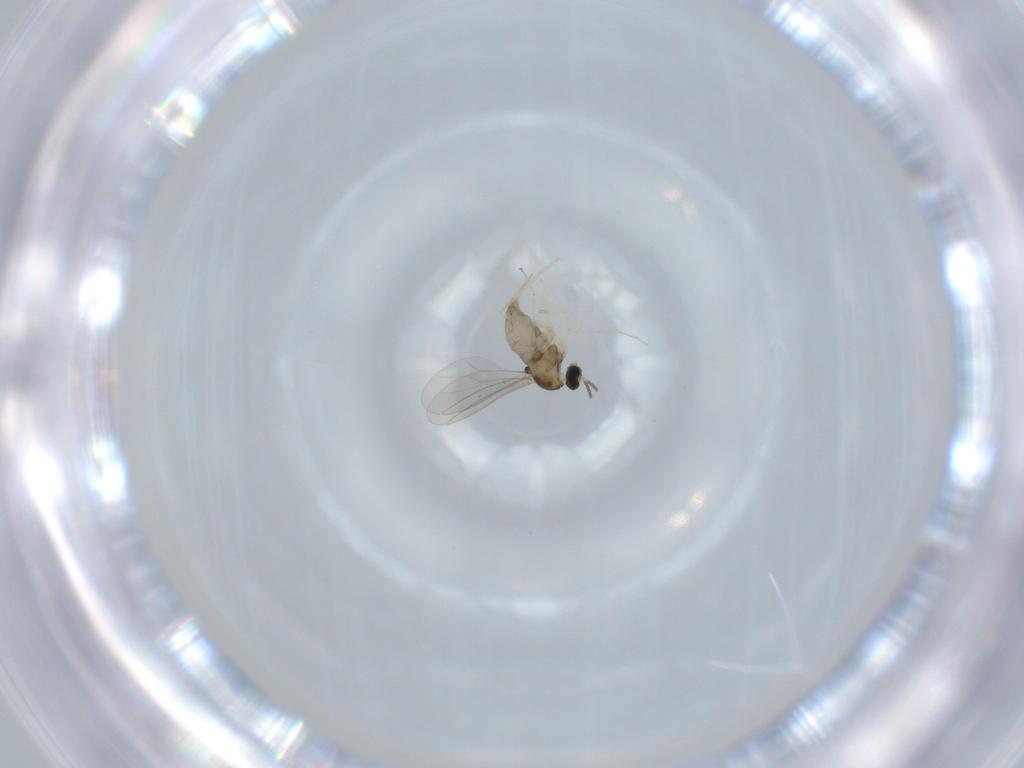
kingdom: Animalia
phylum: Arthropoda
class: Insecta
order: Diptera
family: Cecidomyiidae
